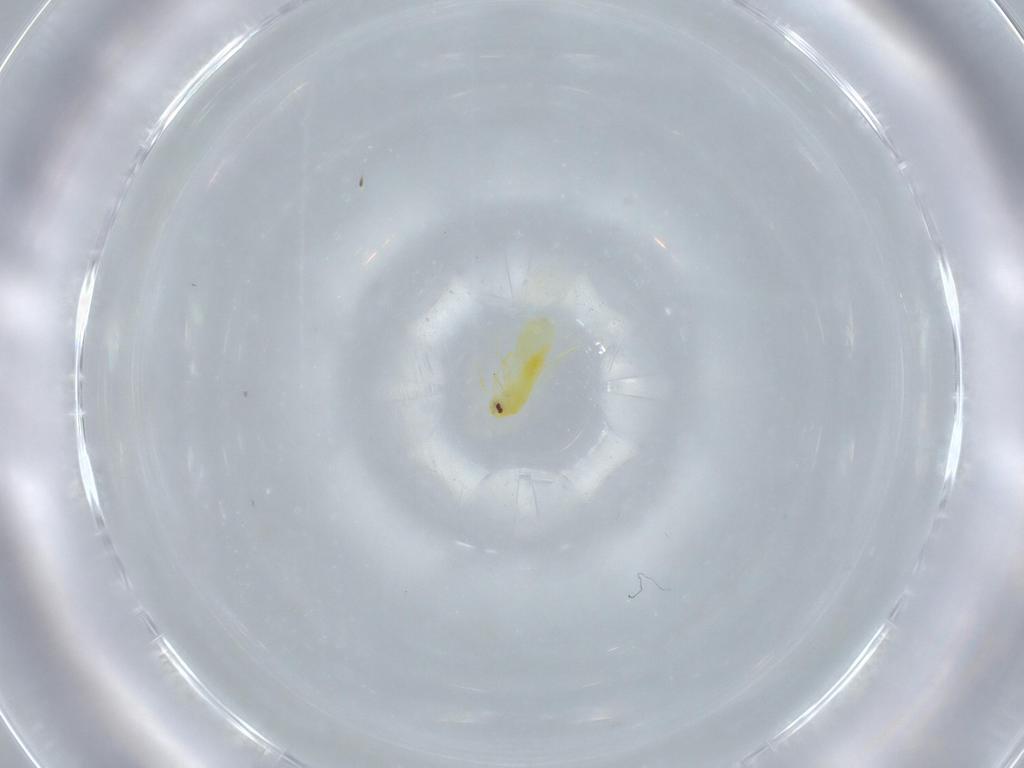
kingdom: Animalia
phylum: Arthropoda
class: Insecta
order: Hemiptera
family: Aleyrodidae
